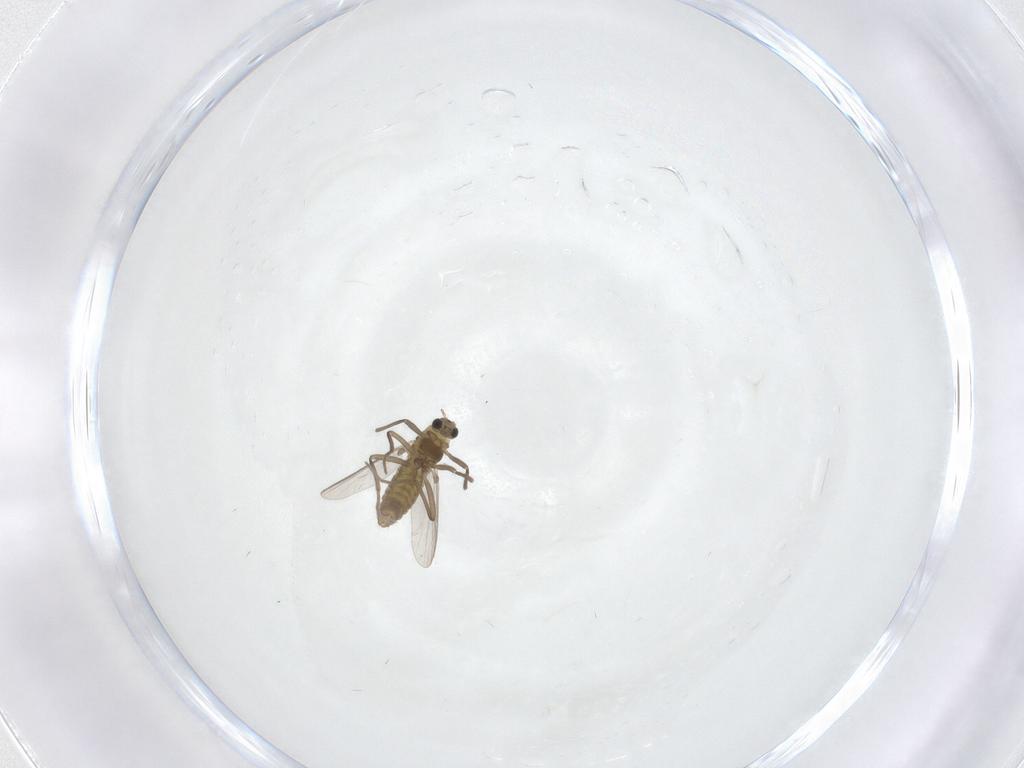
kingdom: Animalia
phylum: Arthropoda
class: Insecta
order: Diptera
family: Chironomidae
